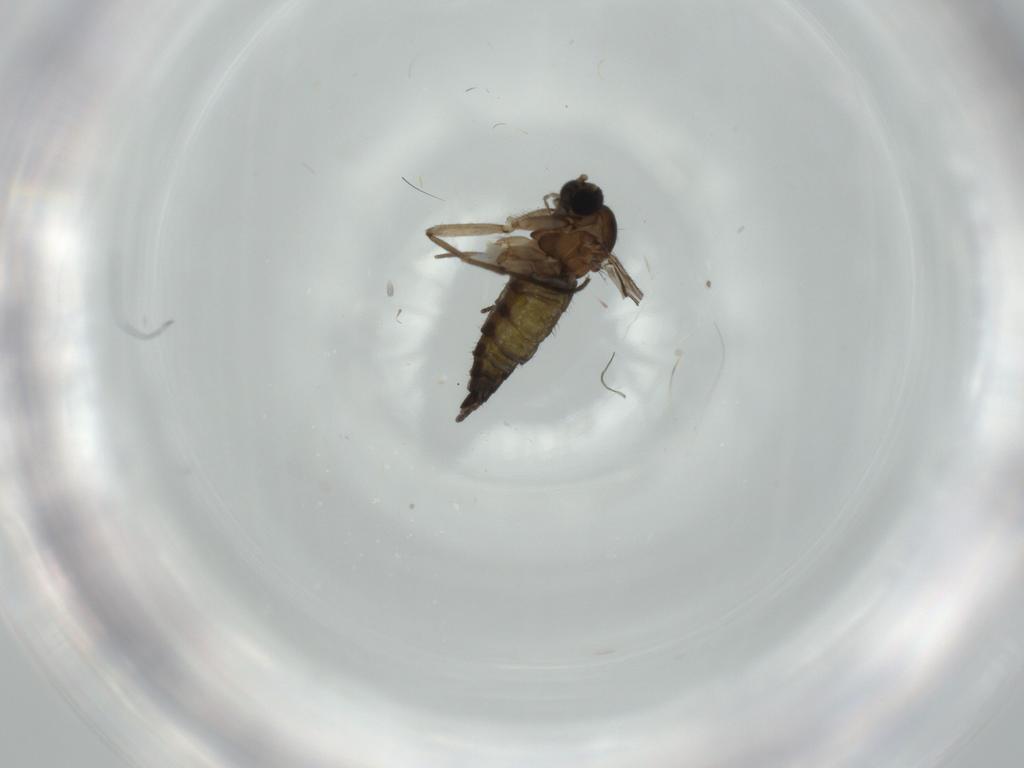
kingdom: Animalia
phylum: Arthropoda
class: Insecta
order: Diptera
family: Sciaridae
